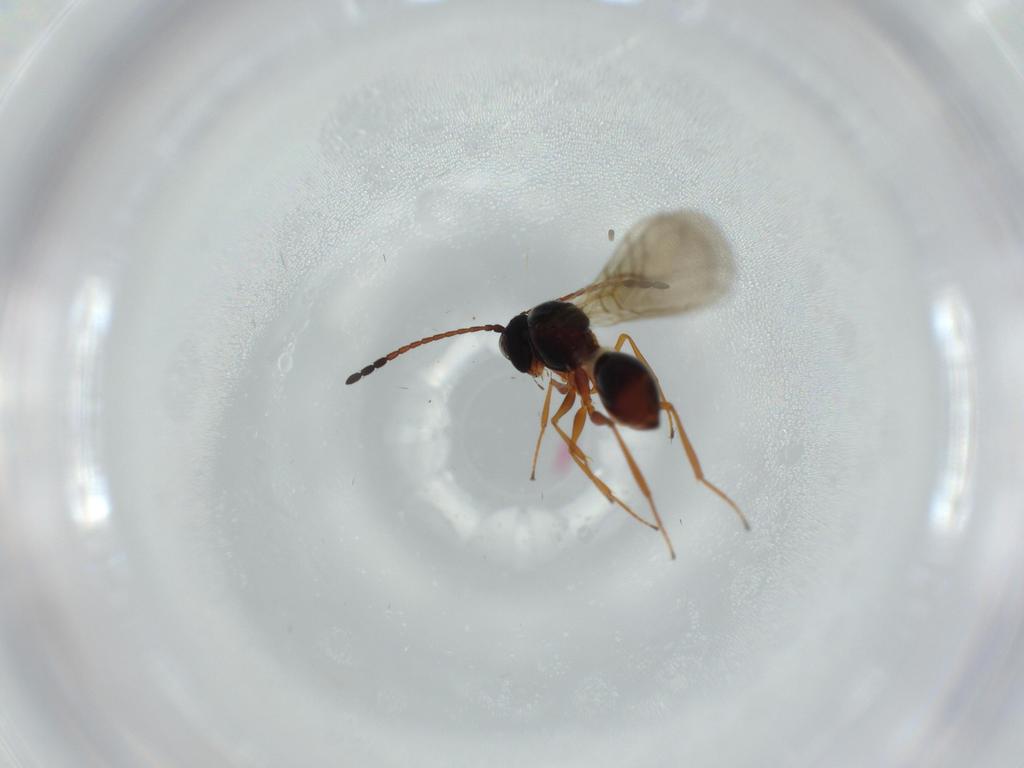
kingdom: Animalia
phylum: Arthropoda
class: Insecta
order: Hymenoptera
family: Figitidae
